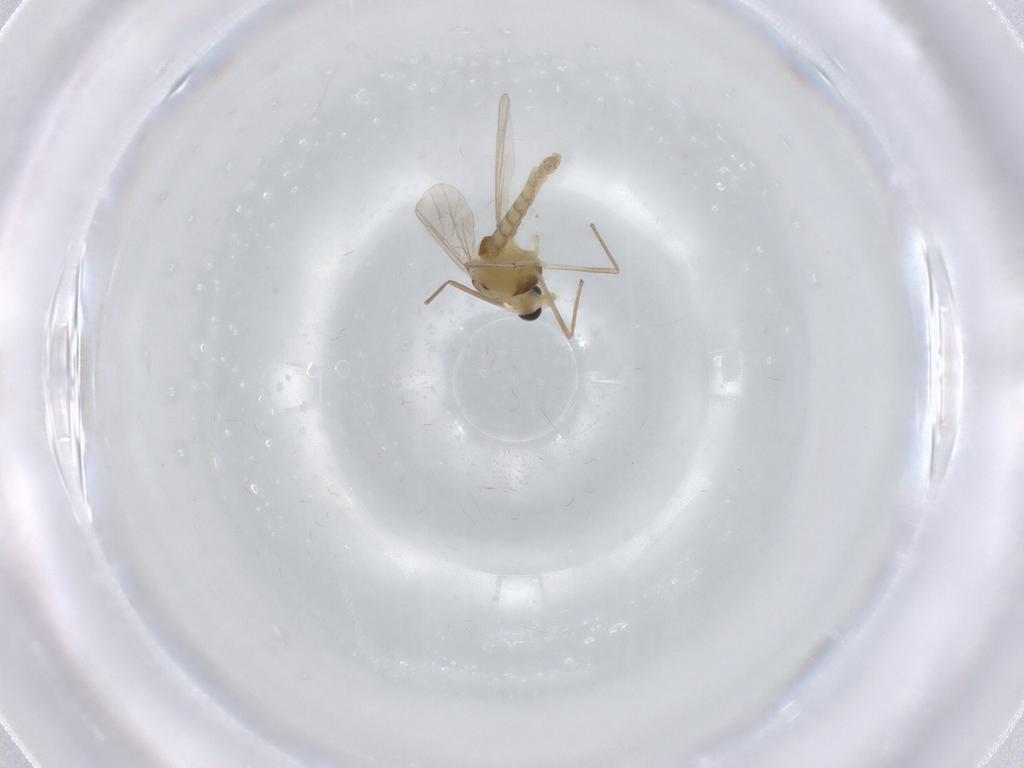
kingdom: Animalia
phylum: Arthropoda
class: Insecta
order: Diptera
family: Chironomidae
